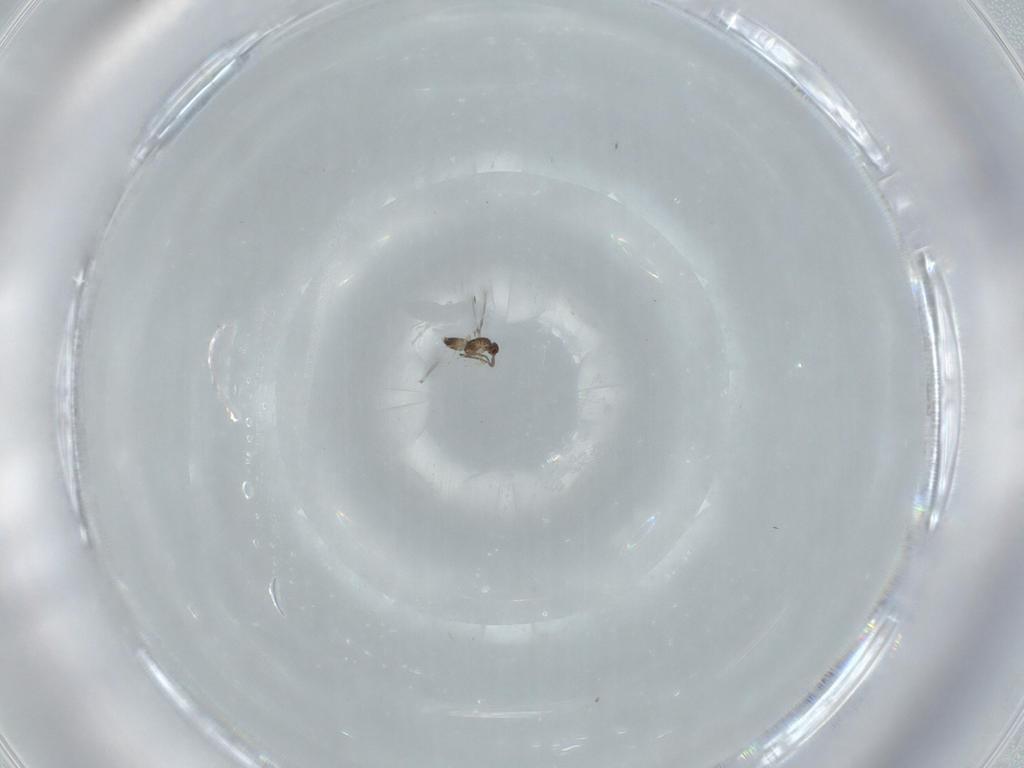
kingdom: Animalia
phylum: Arthropoda
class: Insecta
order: Hymenoptera
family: Mymaridae
